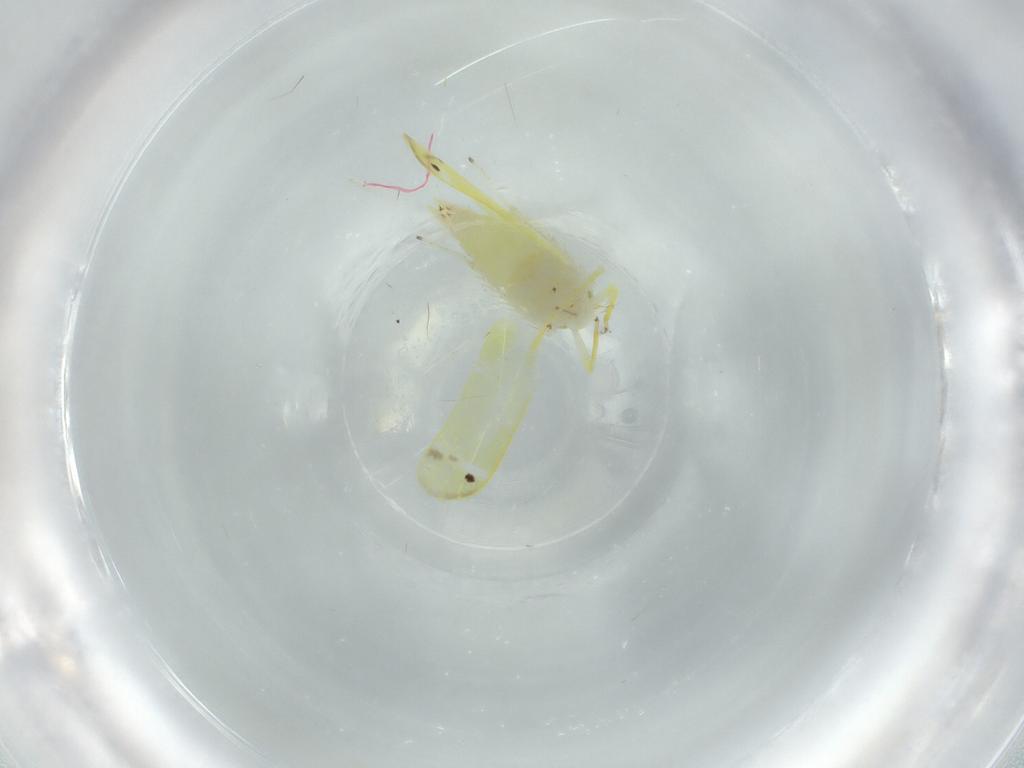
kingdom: Animalia
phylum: Arthropoda
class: Insecta
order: Hemiptera
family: Cicadellidae
